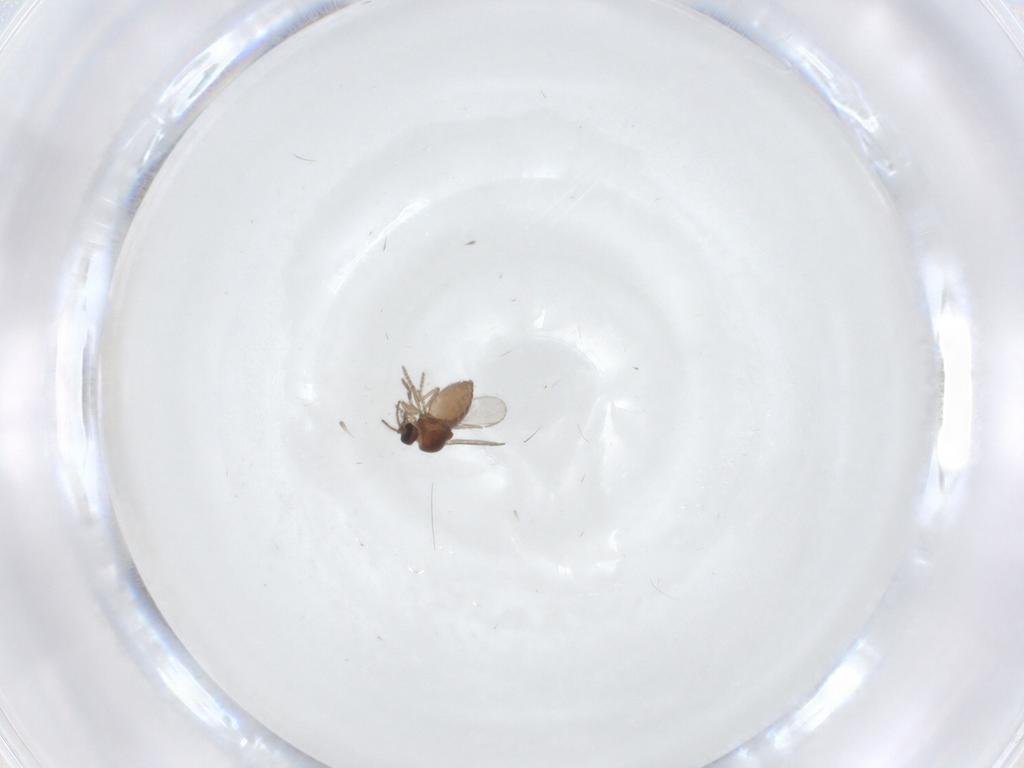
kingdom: Animalia
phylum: Arthropoda
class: Insecta
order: Diptera
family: Ceratopogonidae
